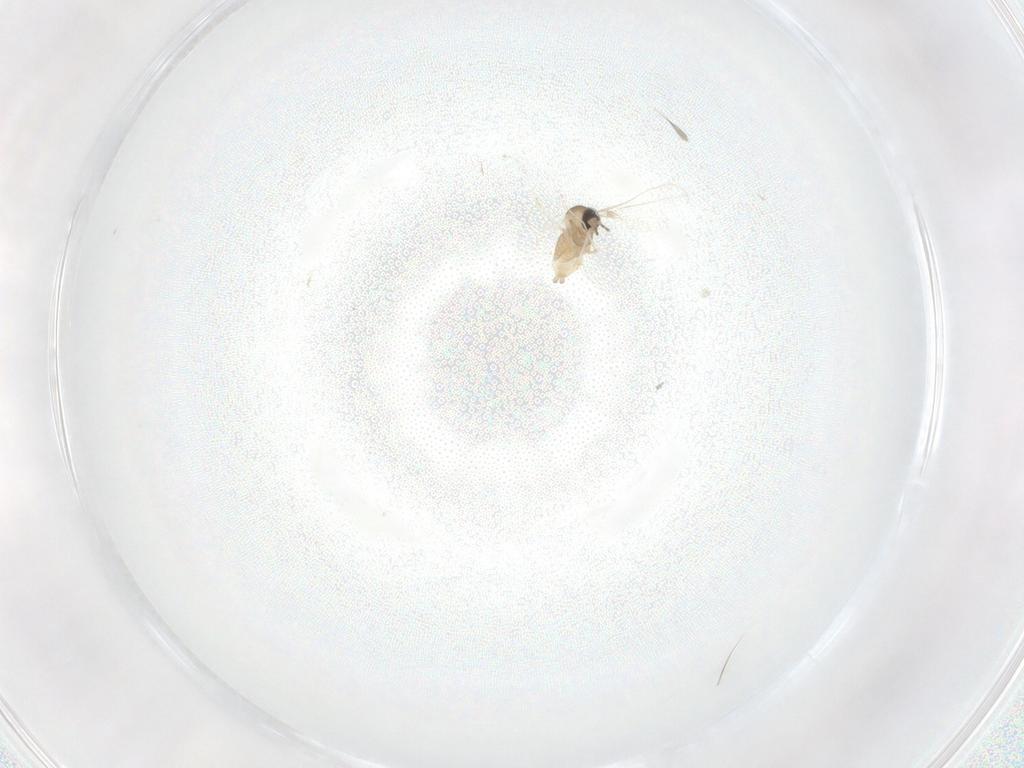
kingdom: Animalia
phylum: Arthropoda
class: Insecta
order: Diptera
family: Cecidomyiidae
